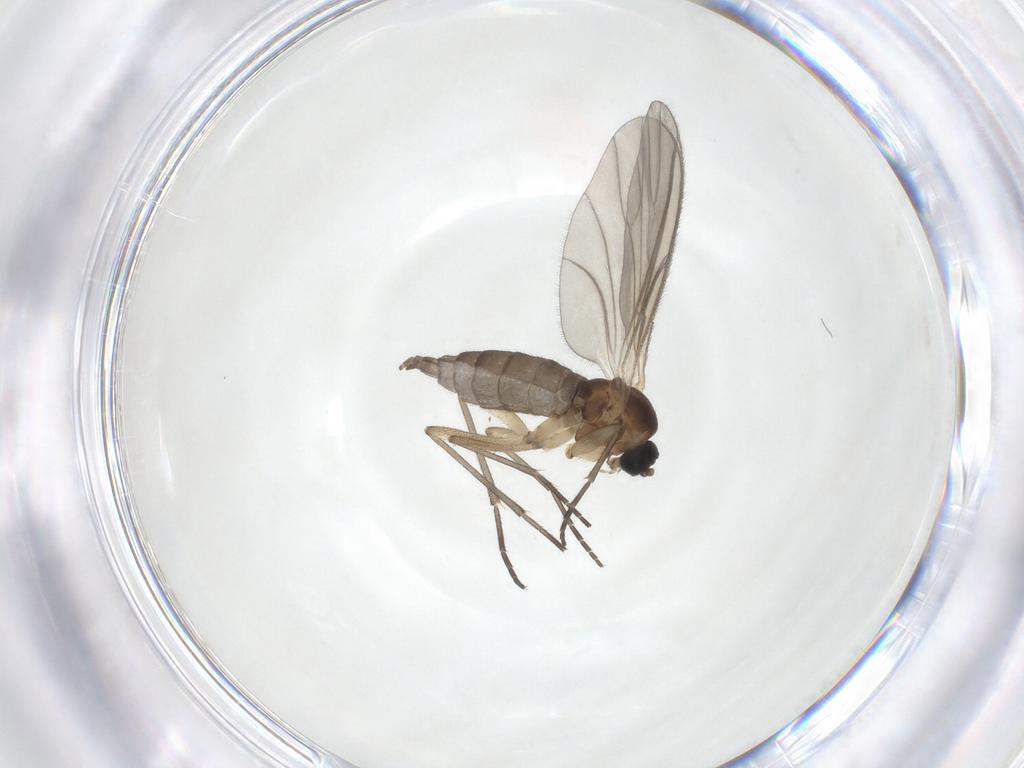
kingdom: Animalia
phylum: Arthropoda
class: Insecta
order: Diptera
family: Sciaridae
